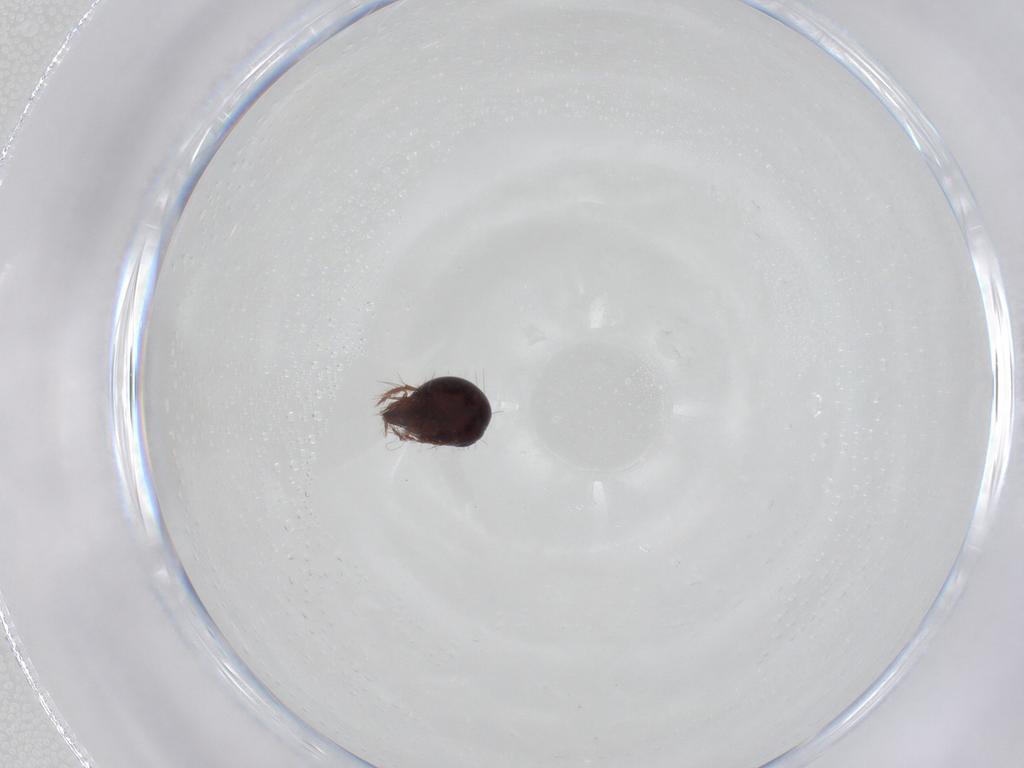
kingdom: Animalia
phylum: Arthropoda
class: Arachnida
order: Sarcoptiformes
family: Ceratoppiidae
